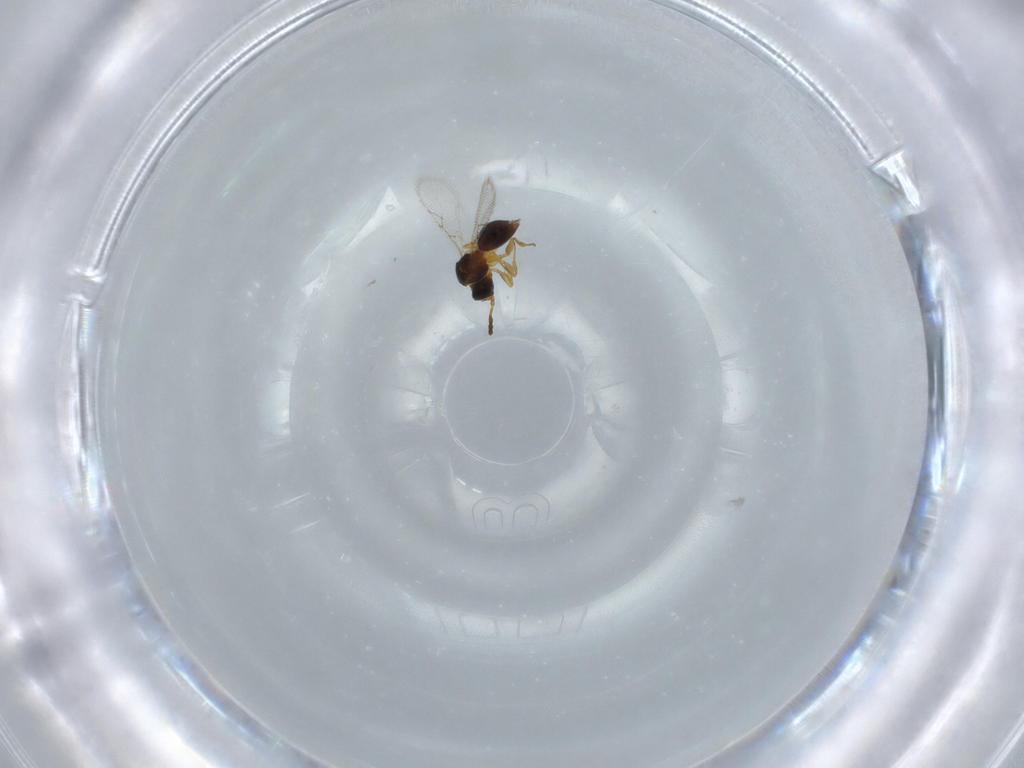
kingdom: Animalia
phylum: Arthropoda
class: Insecta
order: Hymenoptera
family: Figitidae
